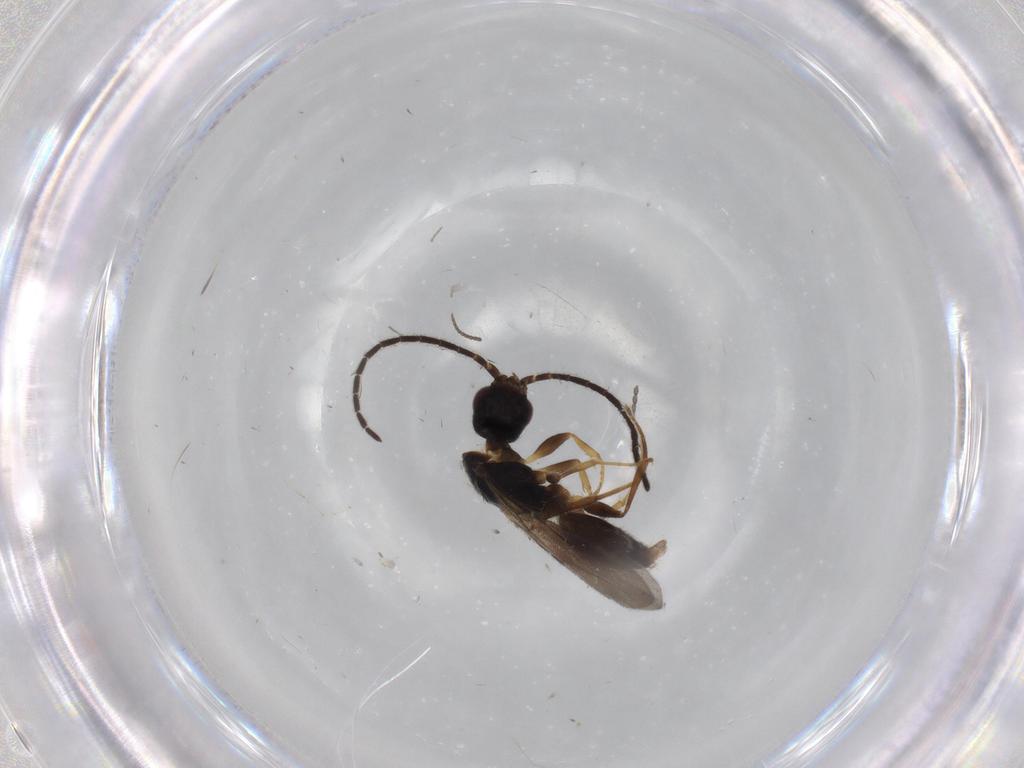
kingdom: Animalia
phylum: Arthropoda
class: Insecta
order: Hymenoptera
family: Bethylidae
